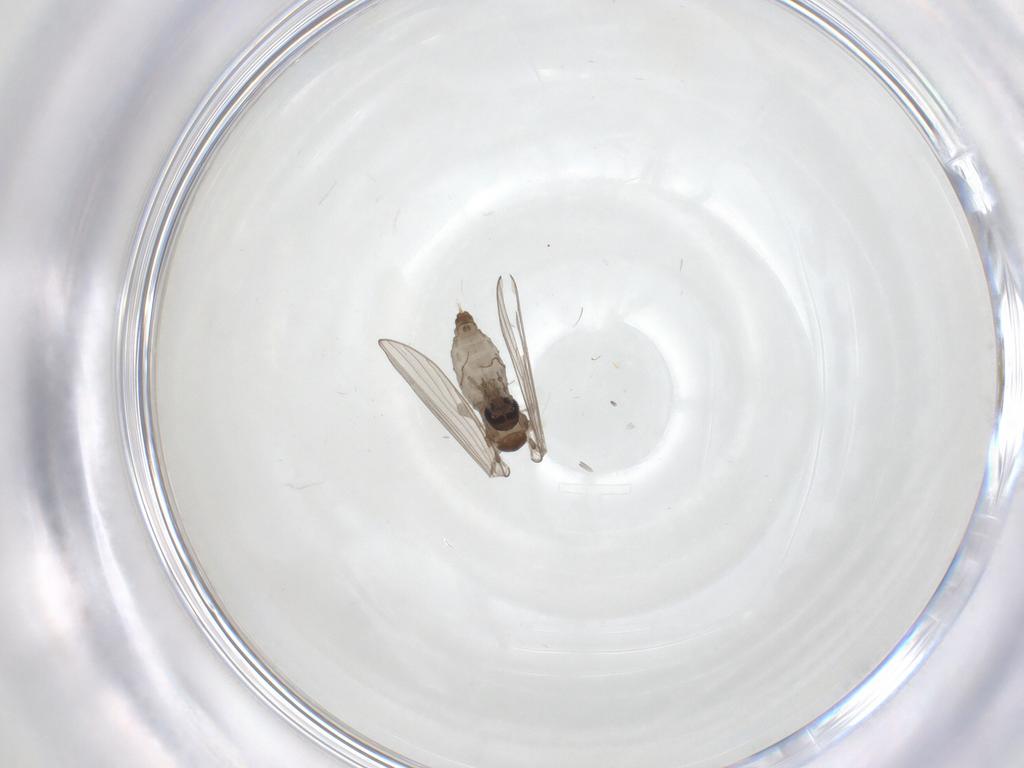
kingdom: Animalia
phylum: Arthropoda
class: Insecta
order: Diptera
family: Psychodidae
